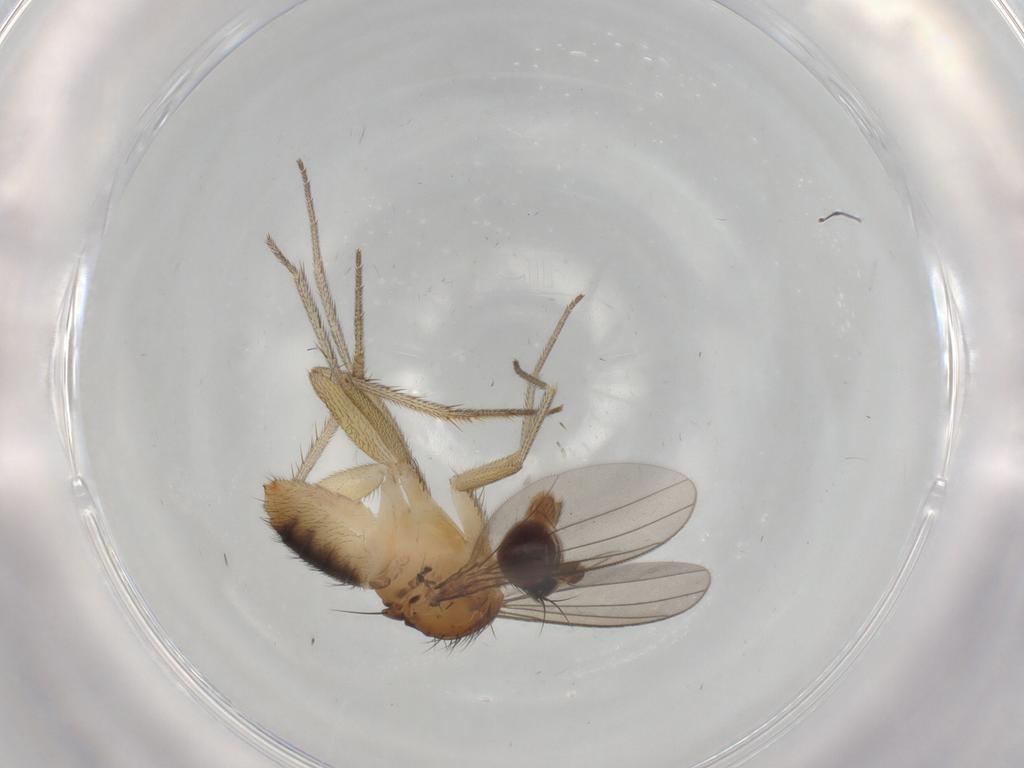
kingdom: Animalia
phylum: Arthropoda
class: Insecta
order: Diptera
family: Dolichopodidae
